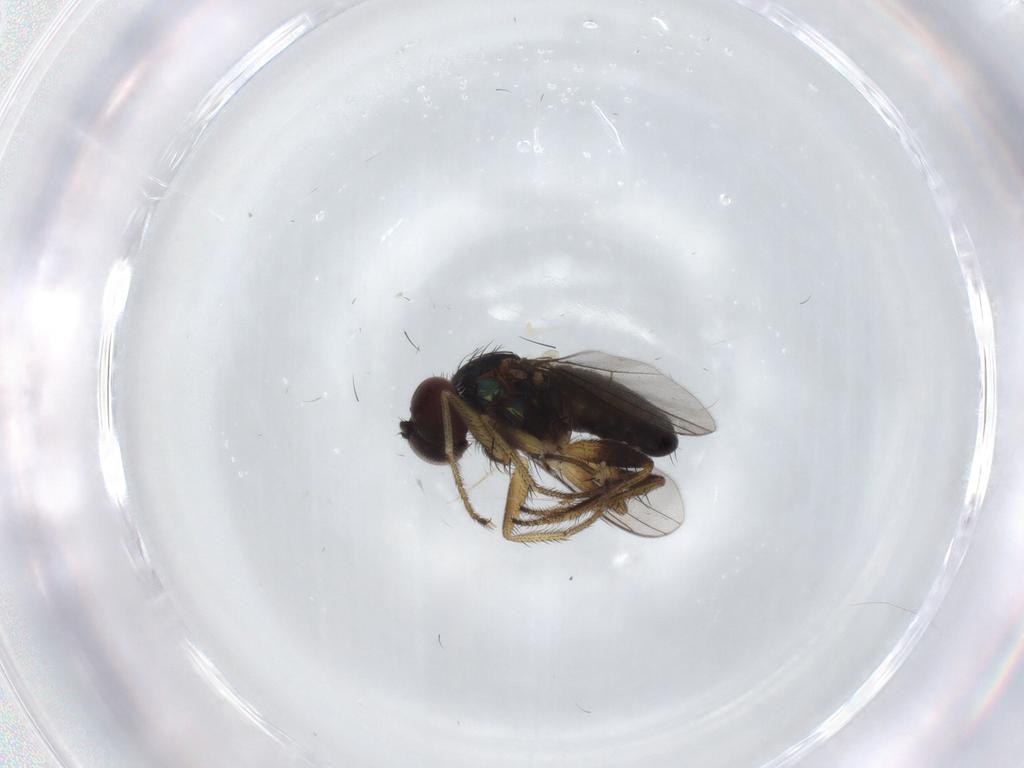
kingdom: Animalia
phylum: Arthropoda
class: Insecta
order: Diptera
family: Dolichopodidae
